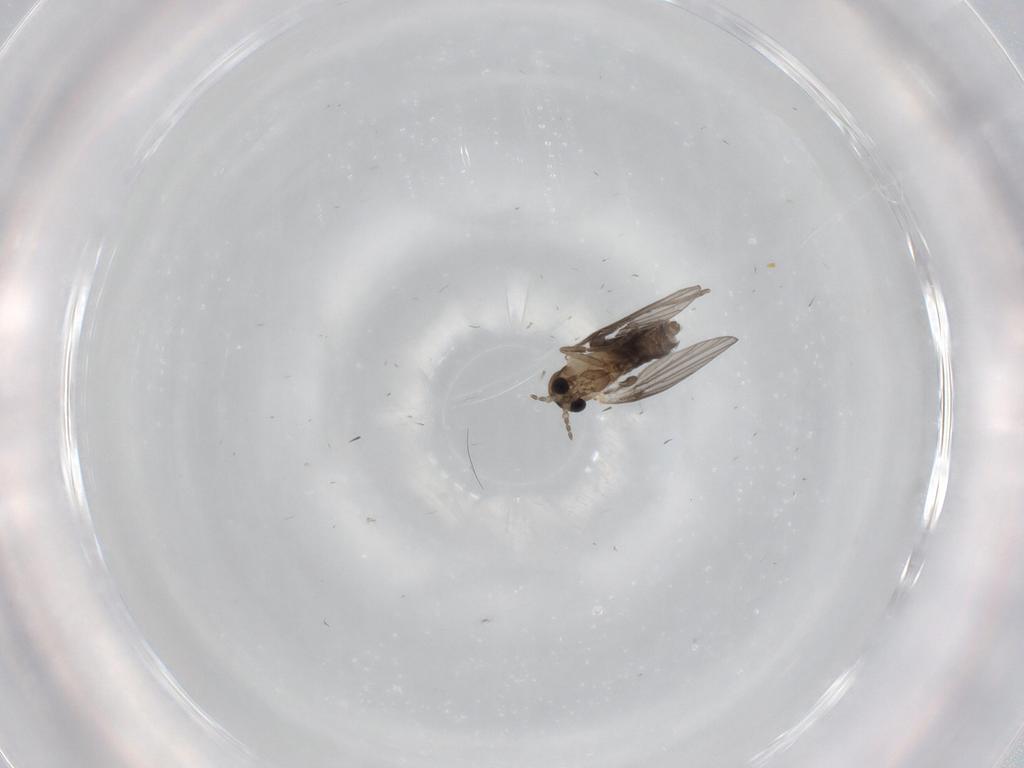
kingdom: Animalia
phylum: Arthropoda
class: Insecta
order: Diptera
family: Psychodidae
